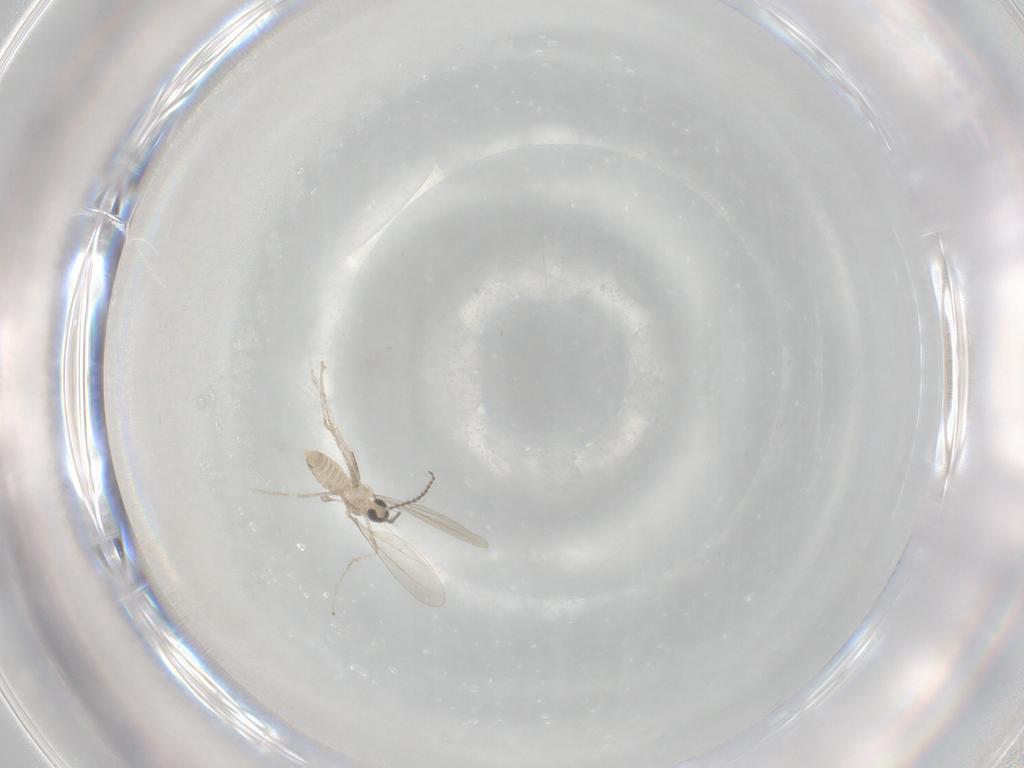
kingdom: Animalia
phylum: Arthropoda
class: Insecta
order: Diptera
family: Cecidomyiidae
